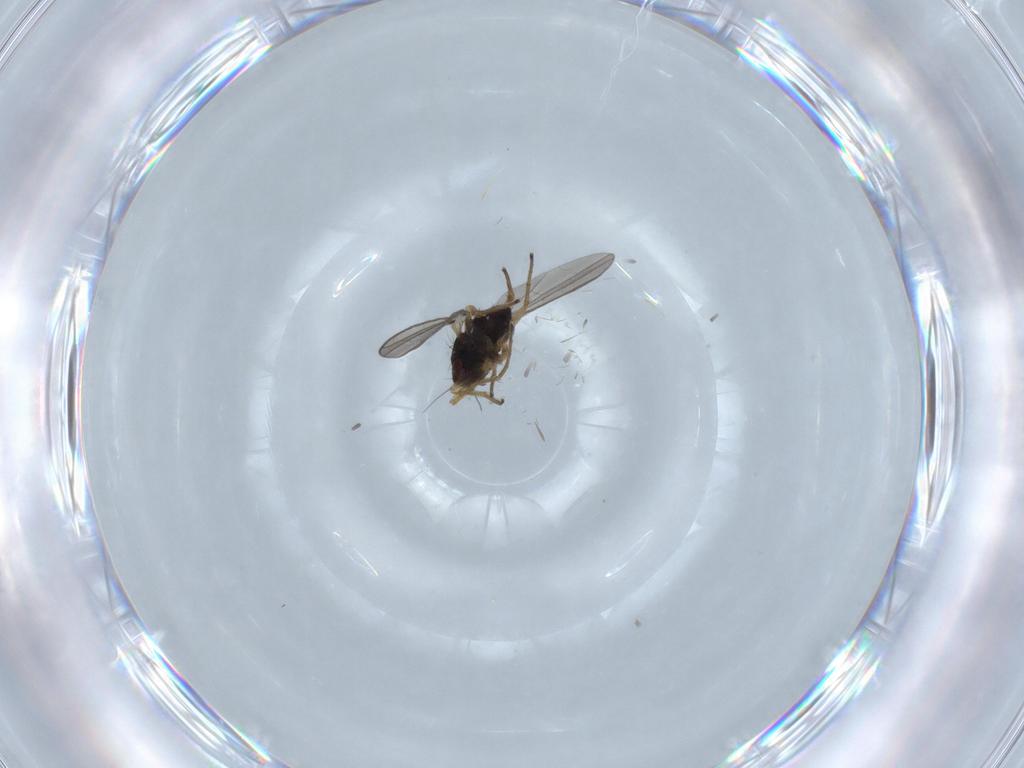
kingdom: Animalia
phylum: Arthropoda
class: Insecta
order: Diptera
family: Dolichopodidae
